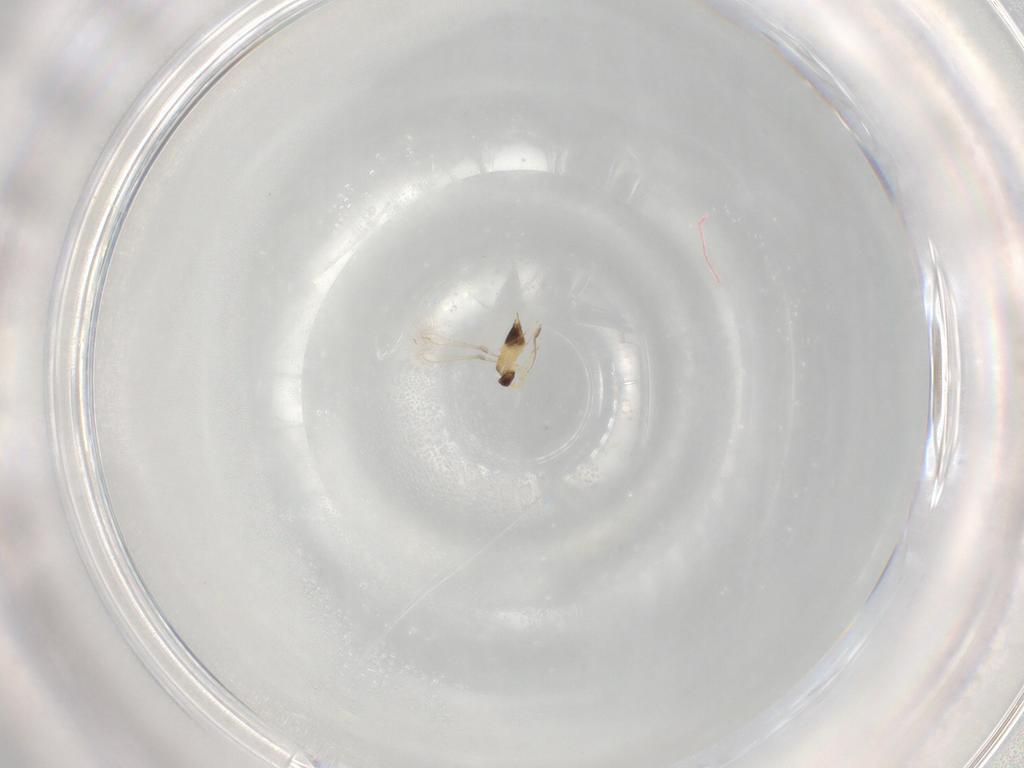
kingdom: Animalia
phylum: Arthropoda
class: Insecta
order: Hymenoptera
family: Mymaridae
